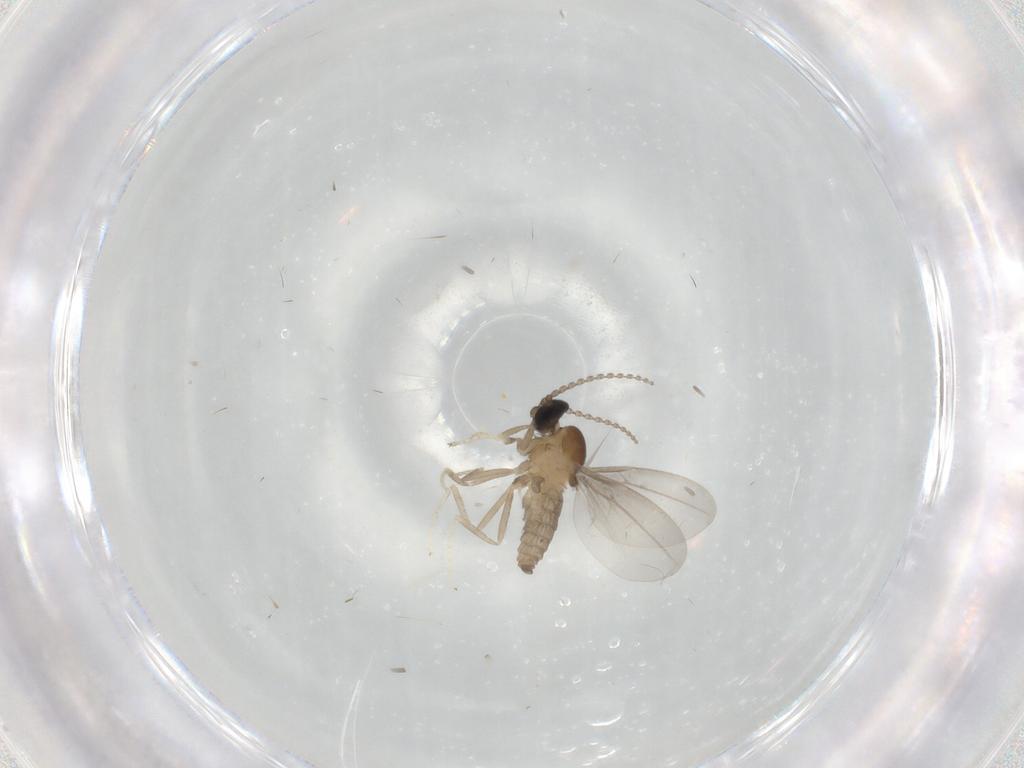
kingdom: Animalia
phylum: Arthropoda
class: Insecta
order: Diptera
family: Cecidomyiidae
